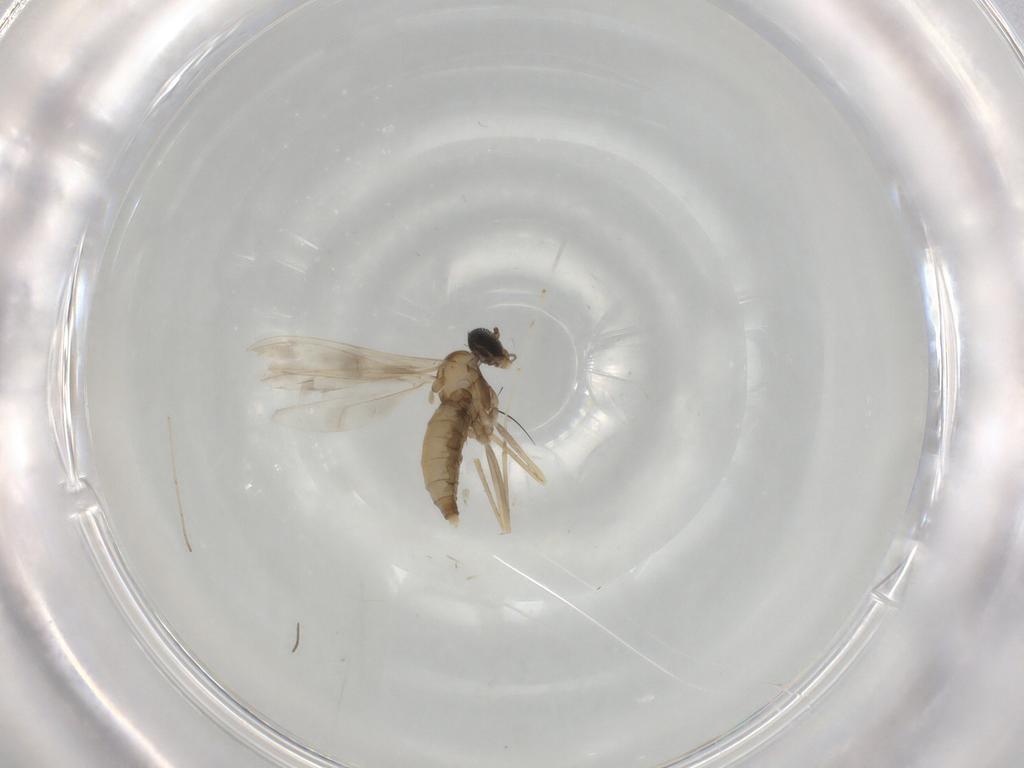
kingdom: Animalia
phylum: Arthropoda
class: Insecta
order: Diptera
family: Cecidomyiidae
